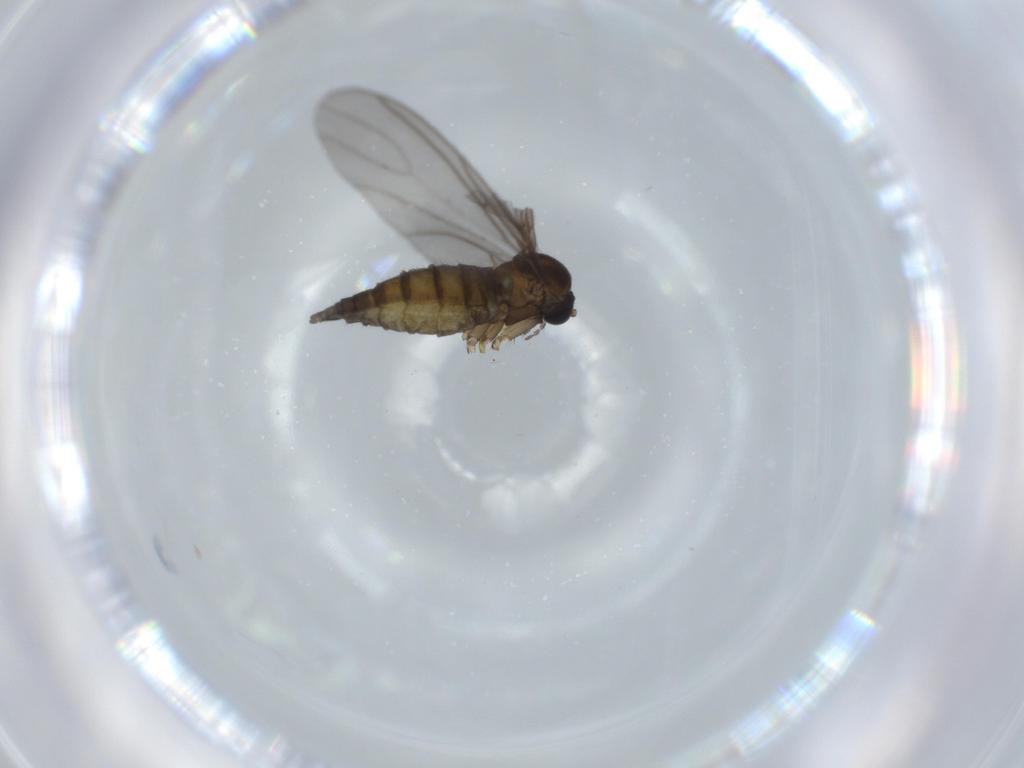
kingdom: Animalia
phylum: Arthropoda
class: Insecta
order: Diptera
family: Sciaridae
